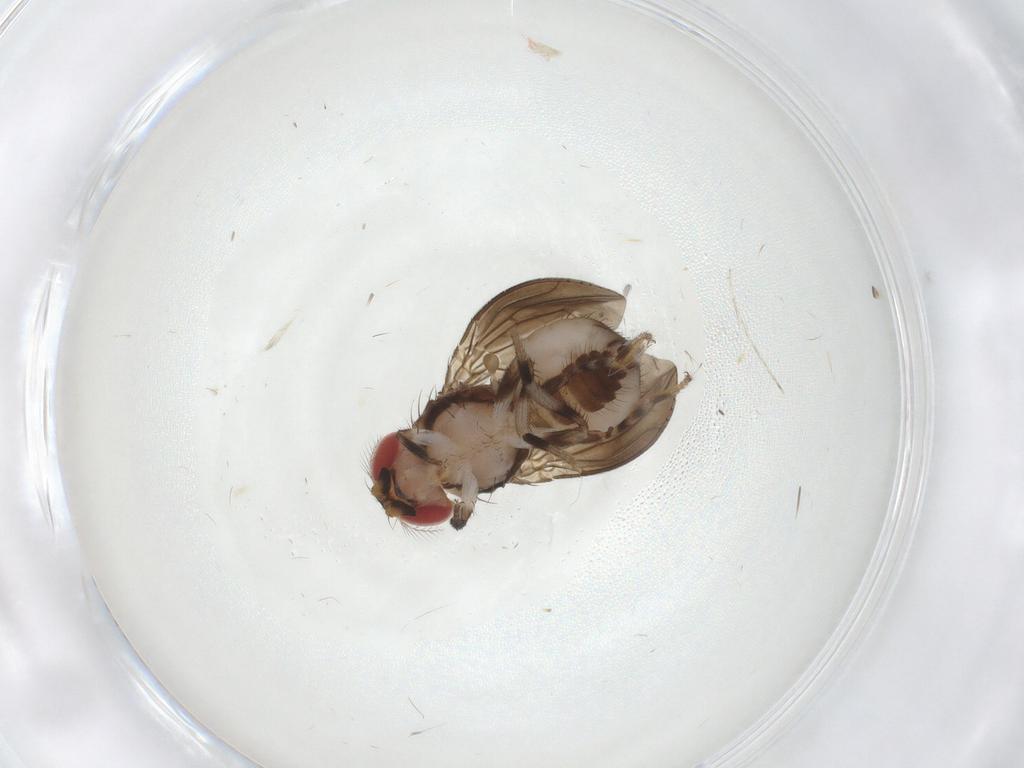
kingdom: Animalia
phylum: Arthropoda
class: Insecta
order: Diptera
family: Drosophilidae
